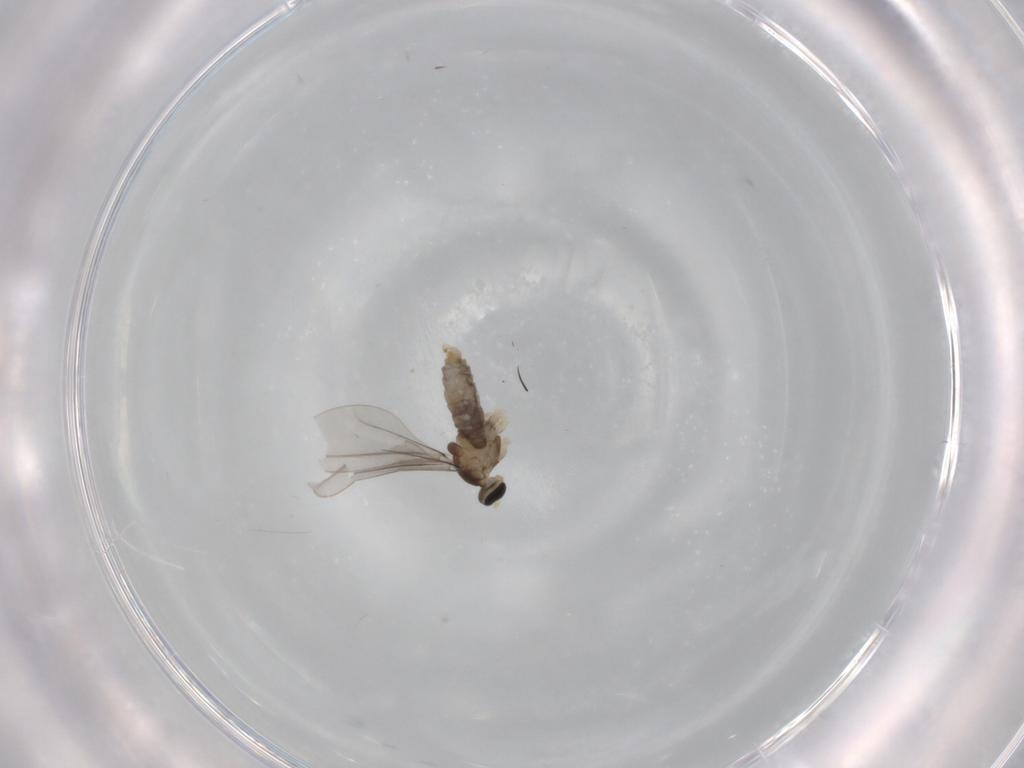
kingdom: Animalia
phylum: Arthropoda
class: Insecta
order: Diptera
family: Cecidomyiidae
